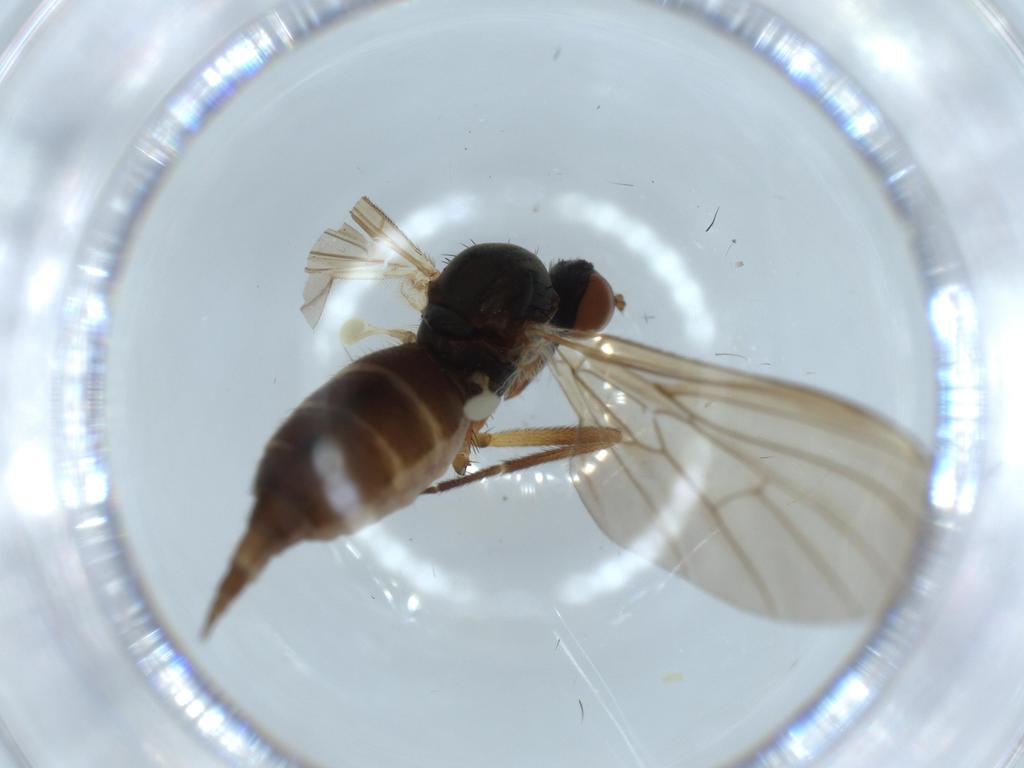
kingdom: Animalia
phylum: Arthropoda
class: Insecta
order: Diptera
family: Empididae
